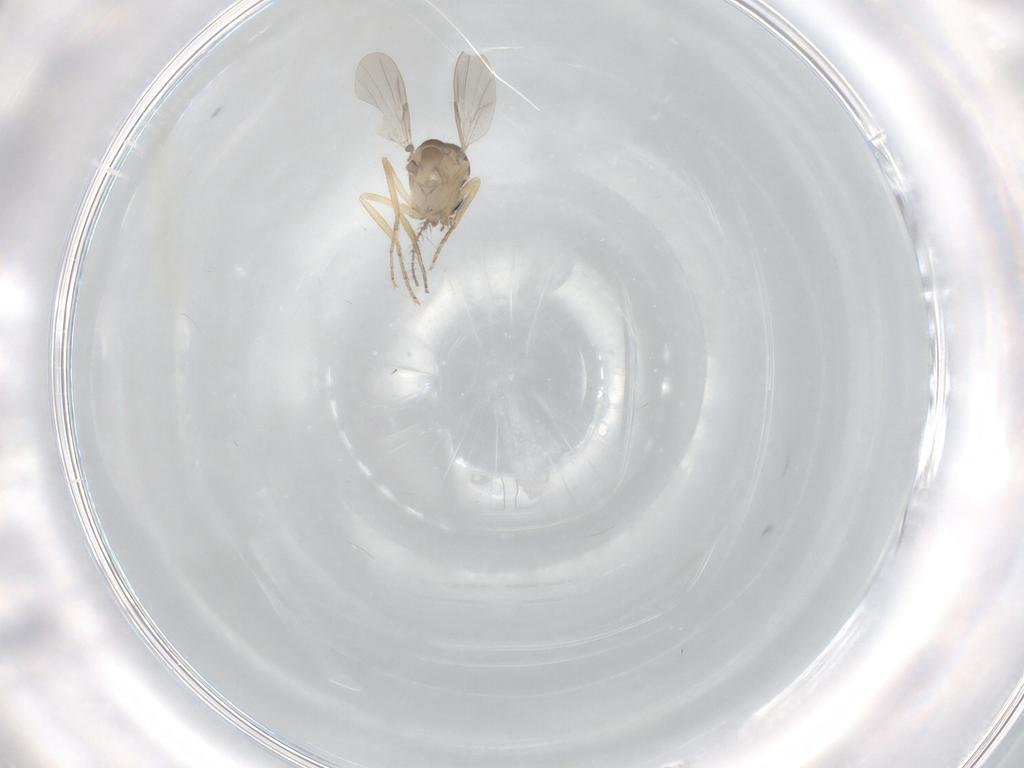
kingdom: Animalia
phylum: Arthropoda
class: Insecta
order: Diptera
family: Ceratopogonidae
